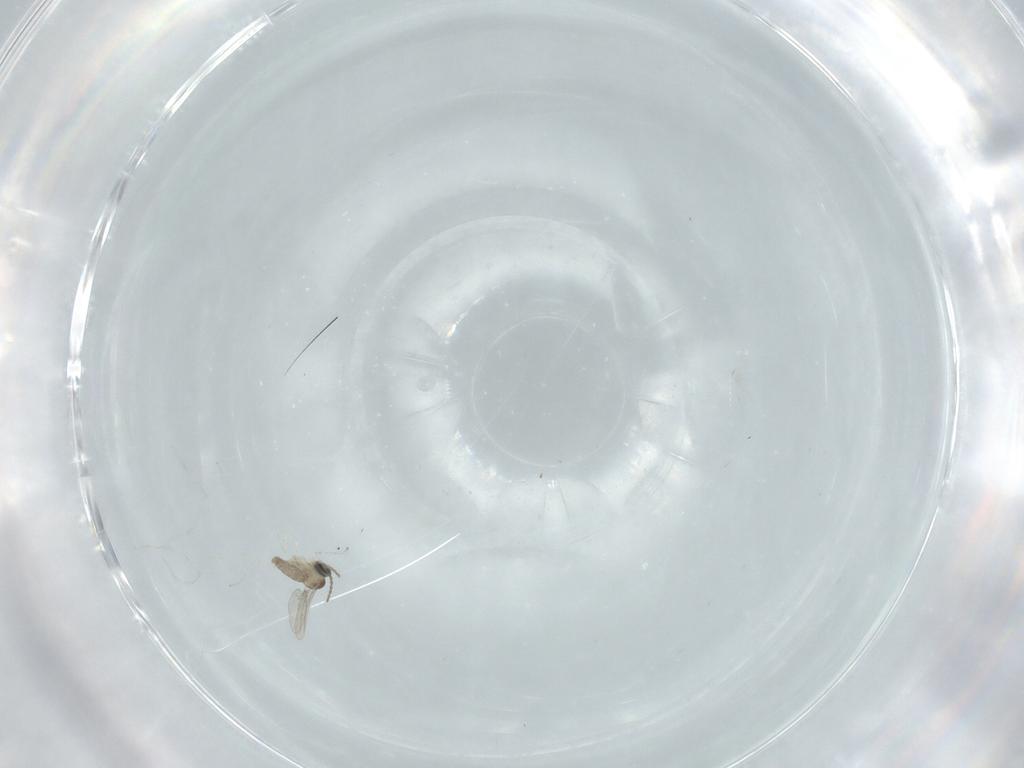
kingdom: Animalia
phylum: Arthropoda
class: Insecta
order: Diptera
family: Cecidomyiidae
